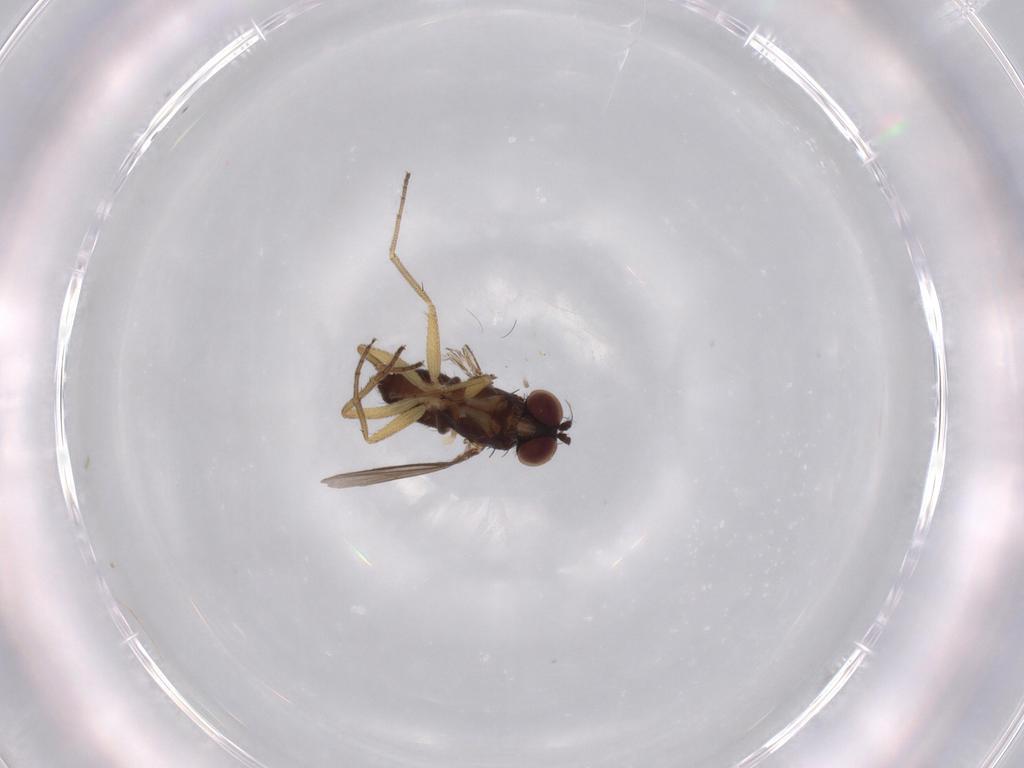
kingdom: Animalia
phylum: Arthropoda
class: Insecta
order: Diptera
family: Dolichopodidae
